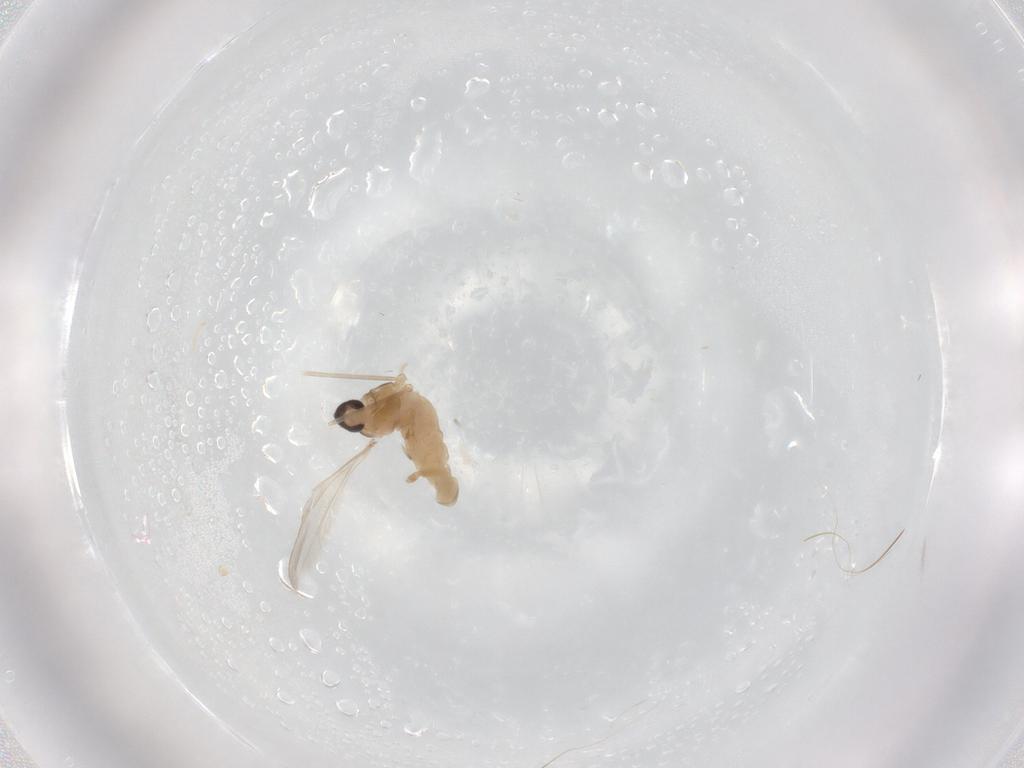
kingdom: Animalia
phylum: Arthropoda
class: Insecta
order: Diptera
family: Cecidomyiidae
